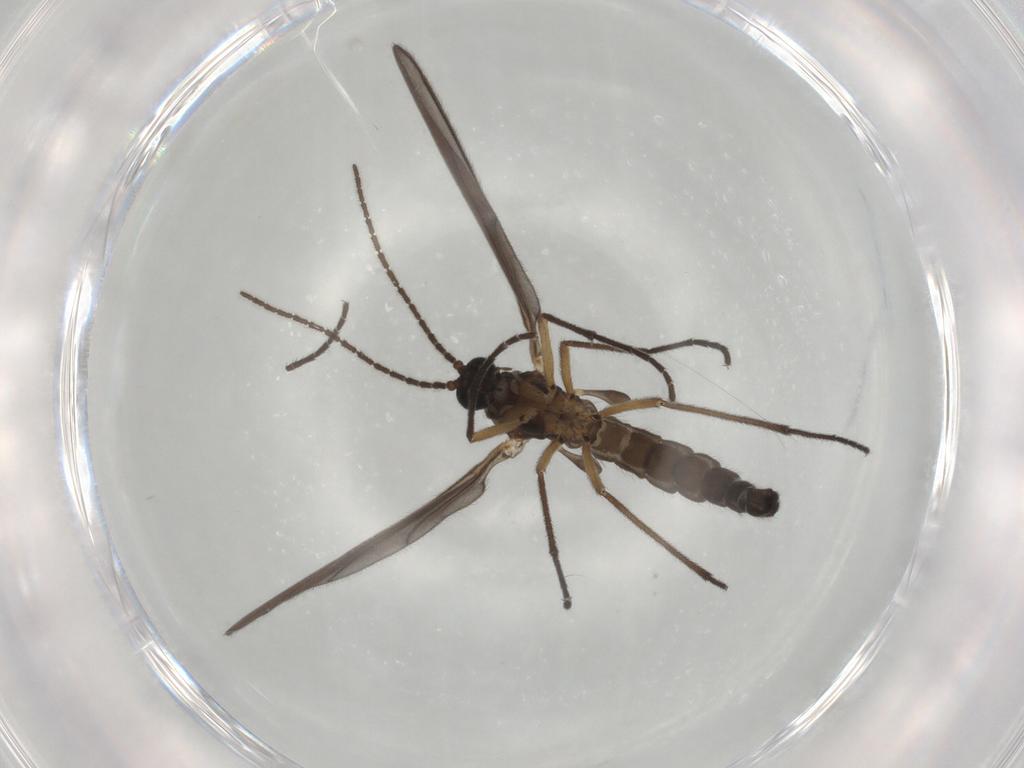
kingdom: Animalia
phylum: Arthropoda
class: Insecta
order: Diptera
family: Sciaridae
